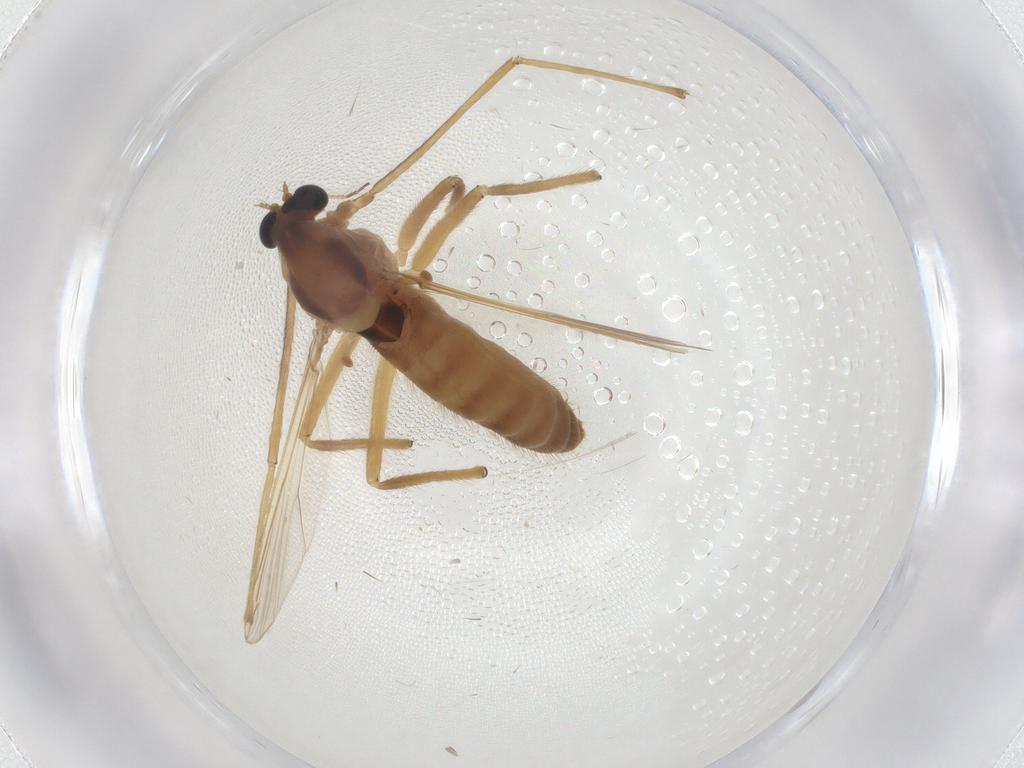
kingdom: Animalia
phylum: Arthropoda
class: Insecta
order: Diptera
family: Chironomidae
